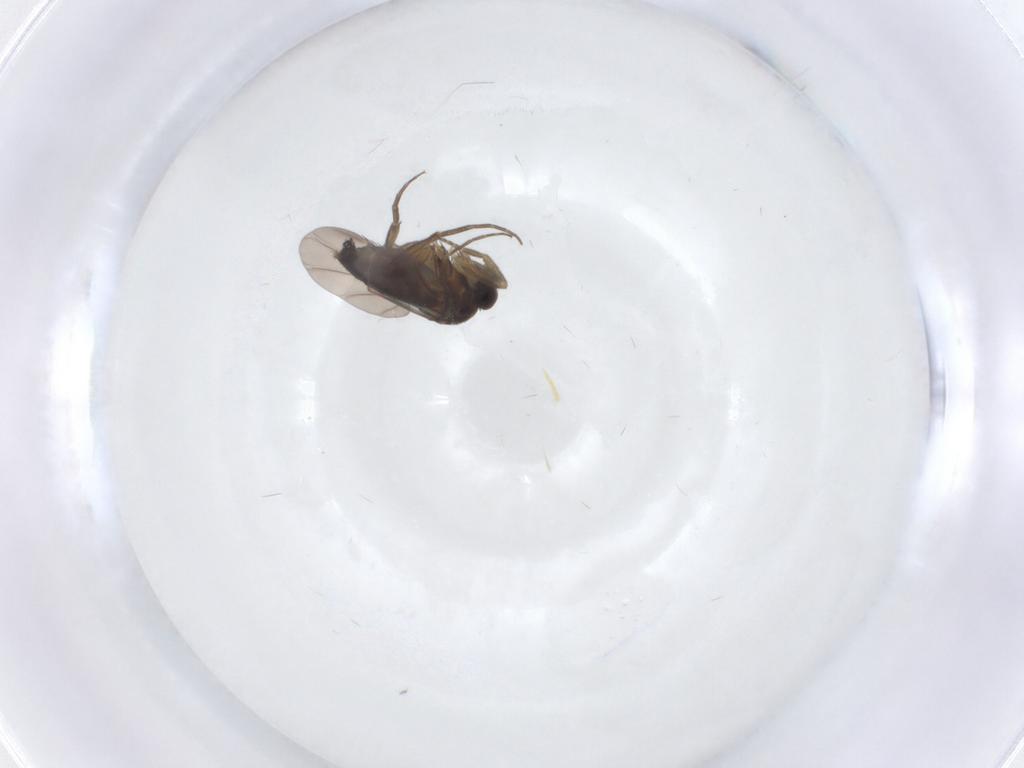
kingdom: Animalia
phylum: Arthropoda
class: Insecta
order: Diptera
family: Phoridae
